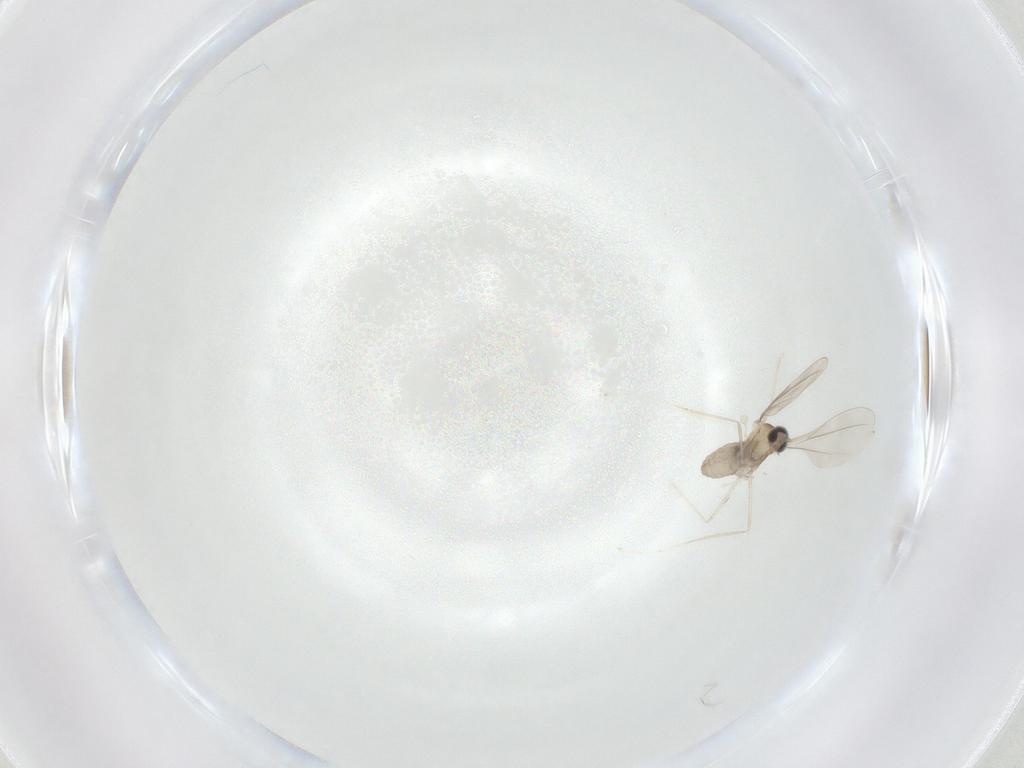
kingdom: Animalia
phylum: Arthropoda
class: Insecta
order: Diptera
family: Cecidomyiidae
